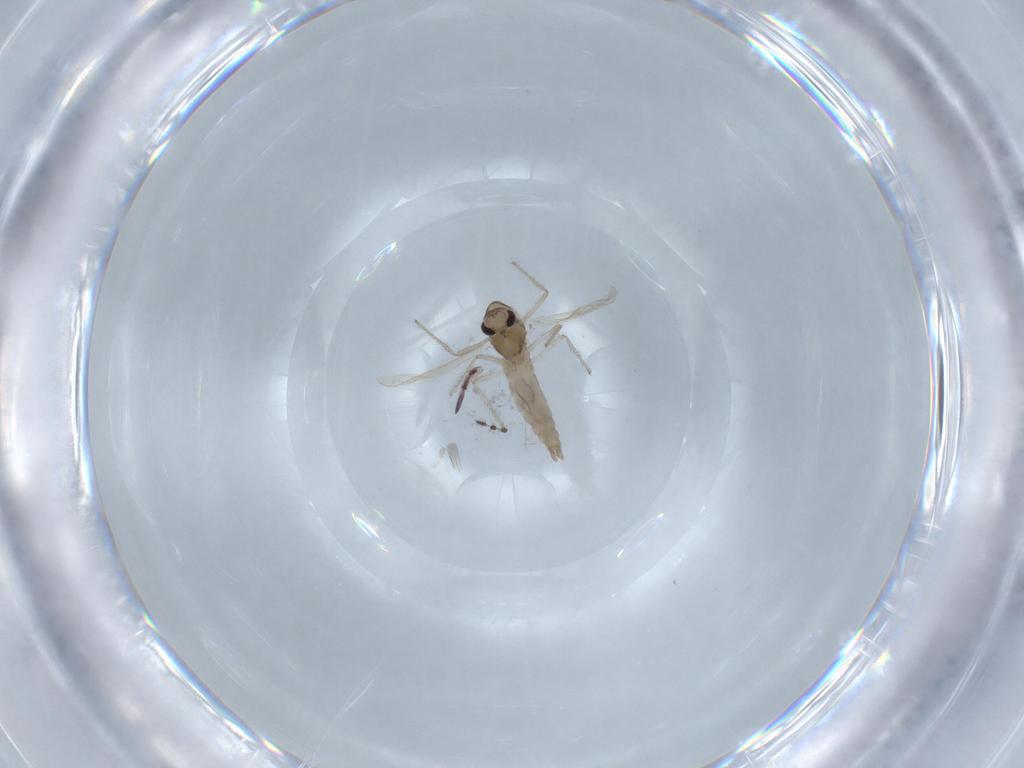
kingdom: Animalia
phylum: Arthropoda
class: Insecta
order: Diptera
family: Chironomidae
